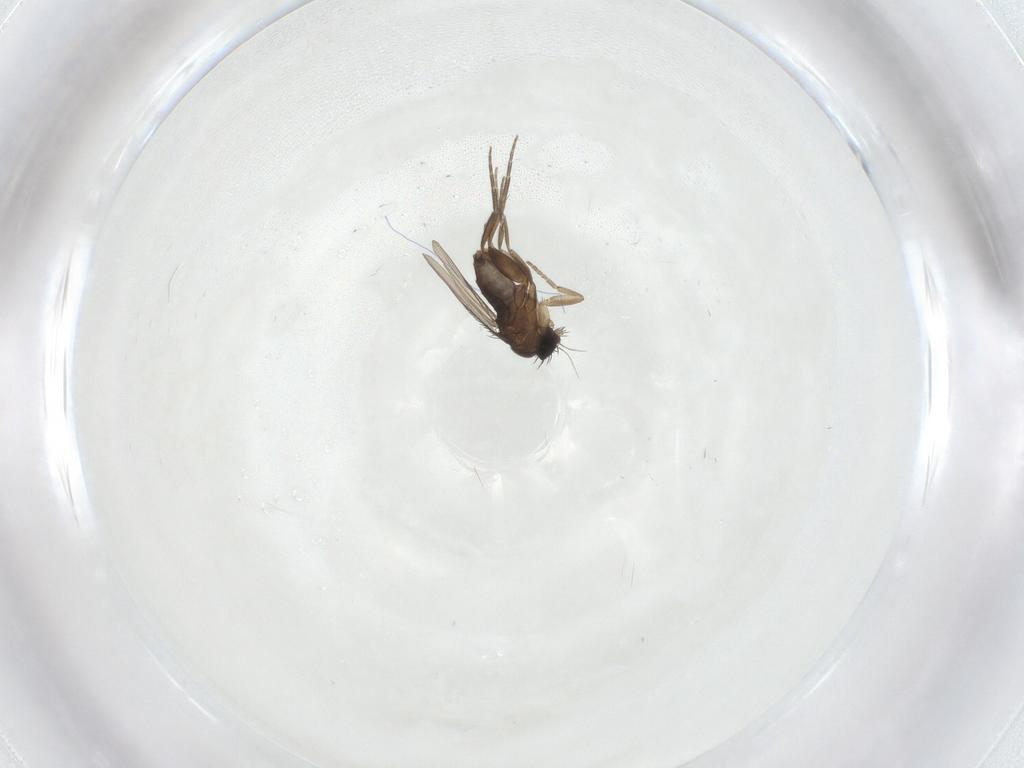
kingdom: Animalia
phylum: Arthropoda
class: Insecta
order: Diptera
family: Phoridae
